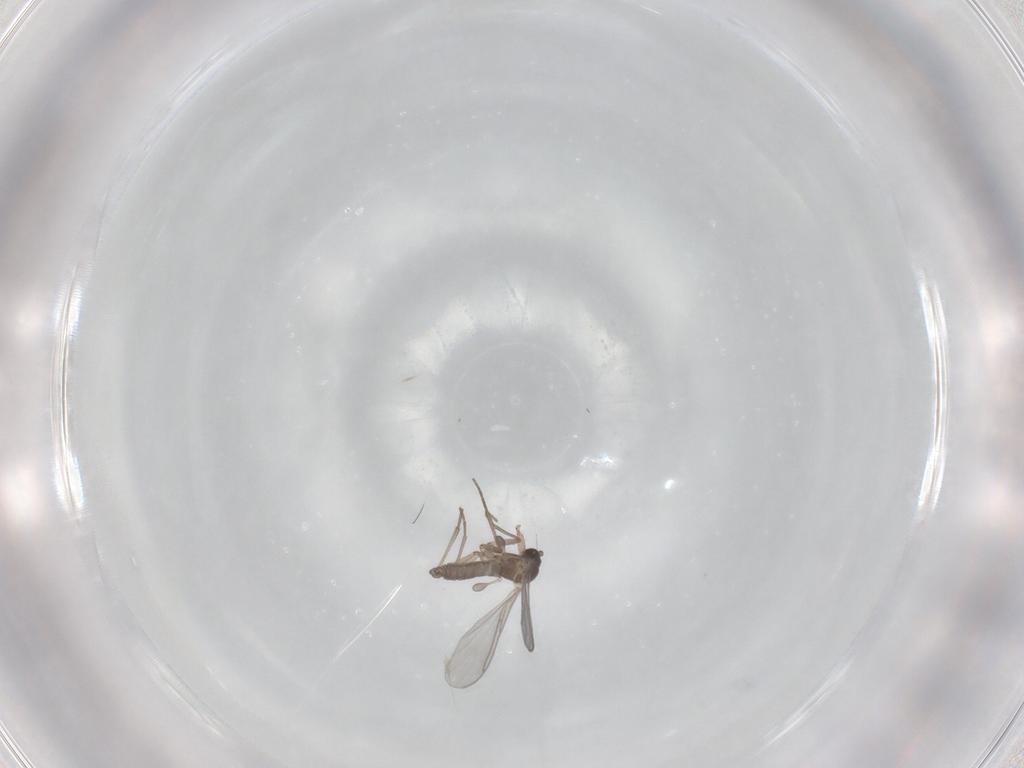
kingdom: Animalia
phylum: Arthropoda
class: Insecta
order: Diptera
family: Sciaridae
